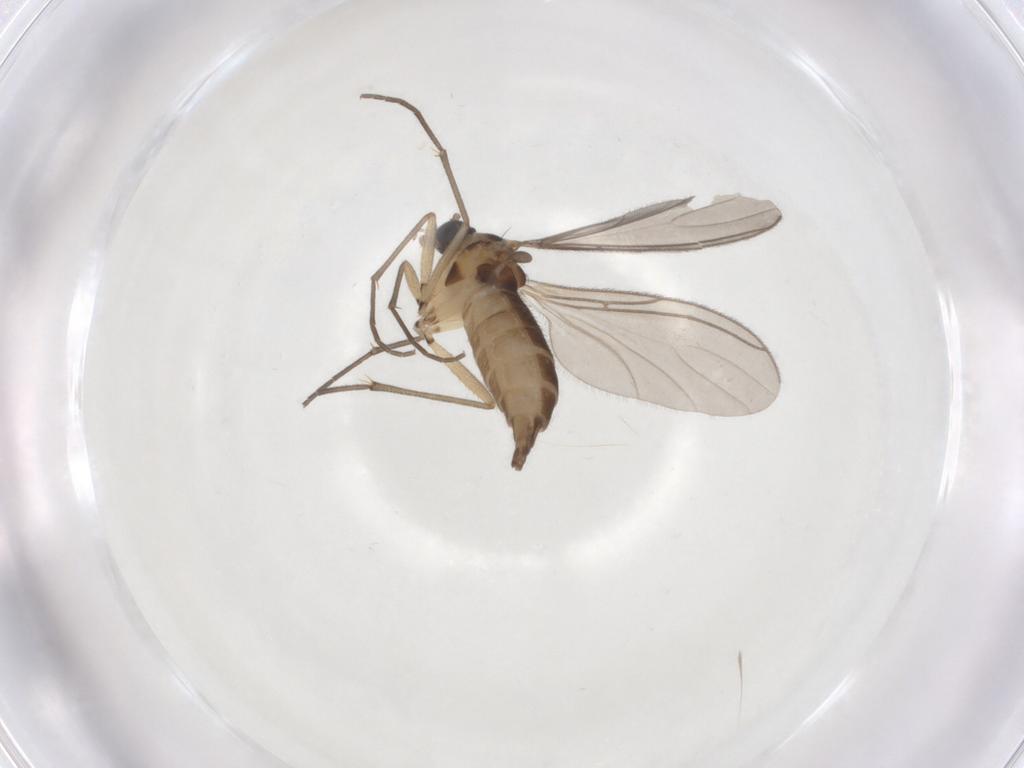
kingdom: Animalia
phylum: Arthropoda
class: Insecta
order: Diptera
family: Sciaridae
